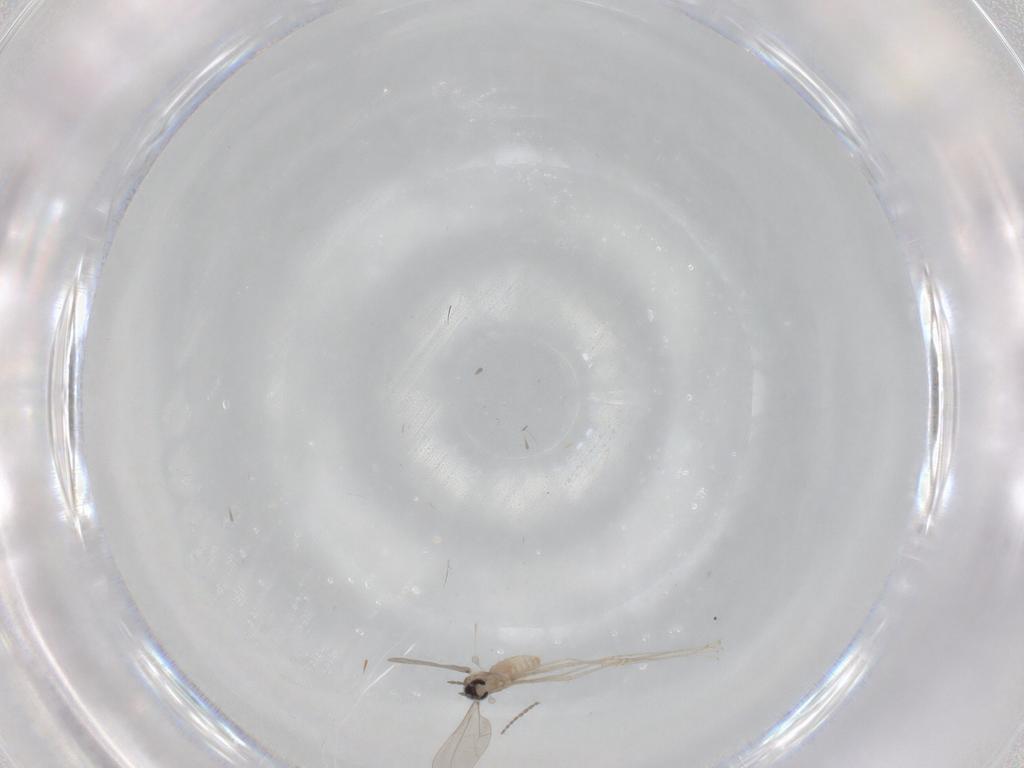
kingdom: Animalia
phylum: Arthropoda
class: Insecta
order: Diptera
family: Cecidomyiidae
